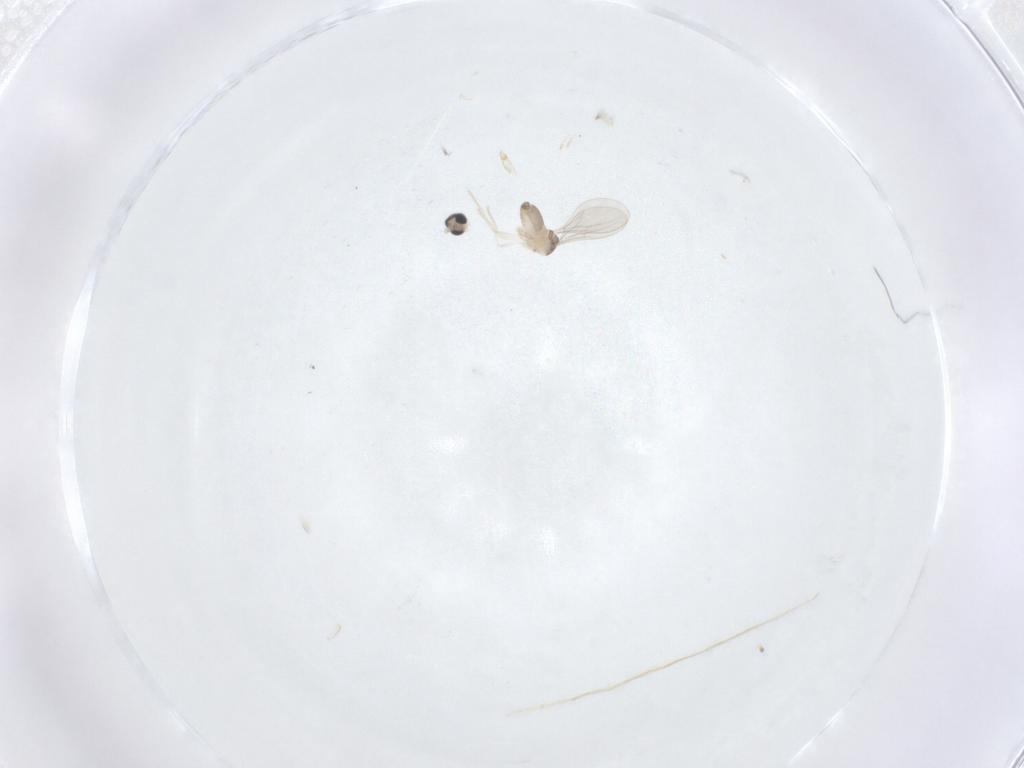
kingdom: Animalia
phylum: Arthropoda
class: Insecta
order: Diptera
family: Cecidomyiidae
